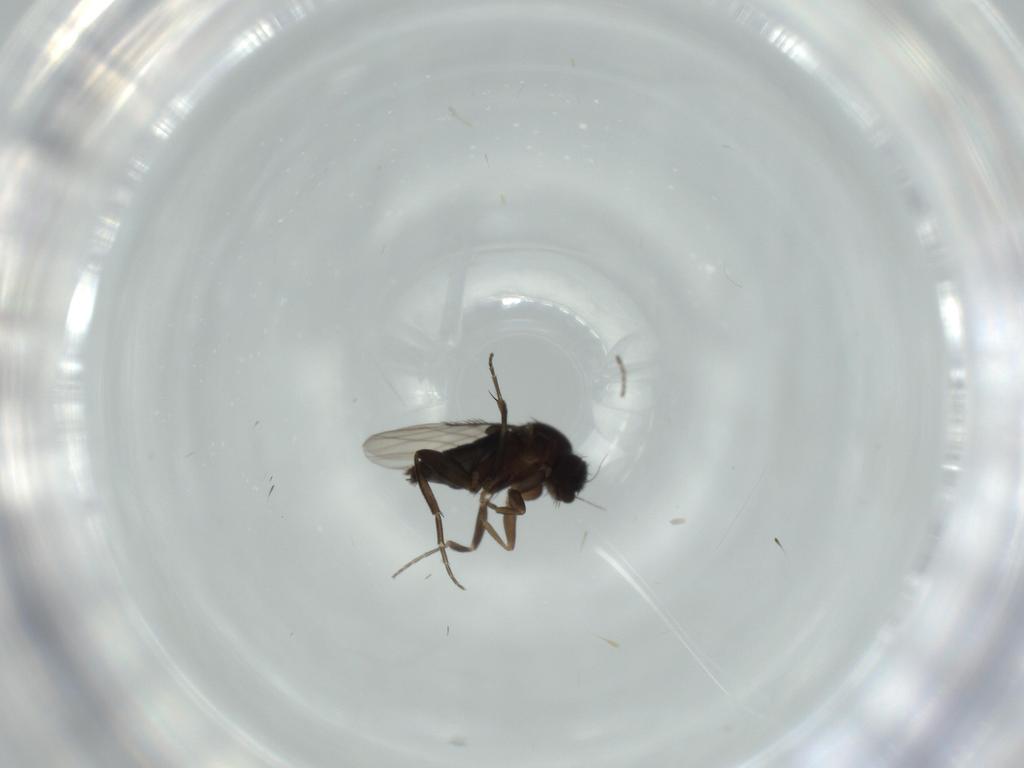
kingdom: Animalia
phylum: Arthropoda
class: Insecta
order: Diptera
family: Phoridae
